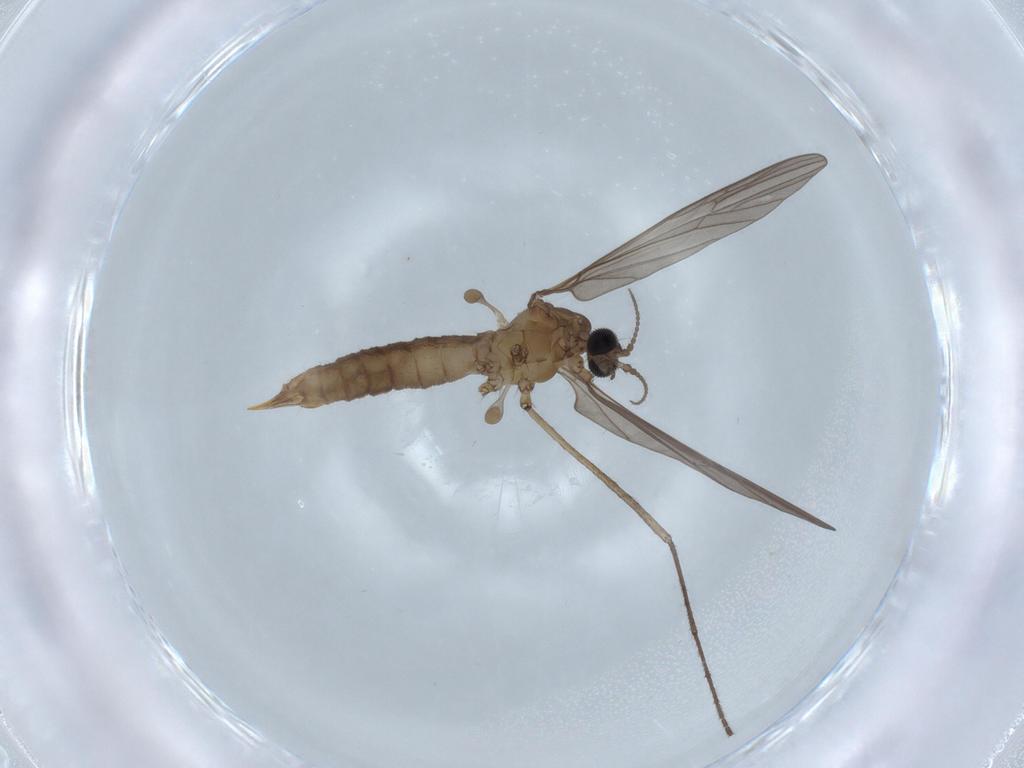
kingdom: Animalia
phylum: Arthropoda
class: Insecta
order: Diptera
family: Limoniidae
